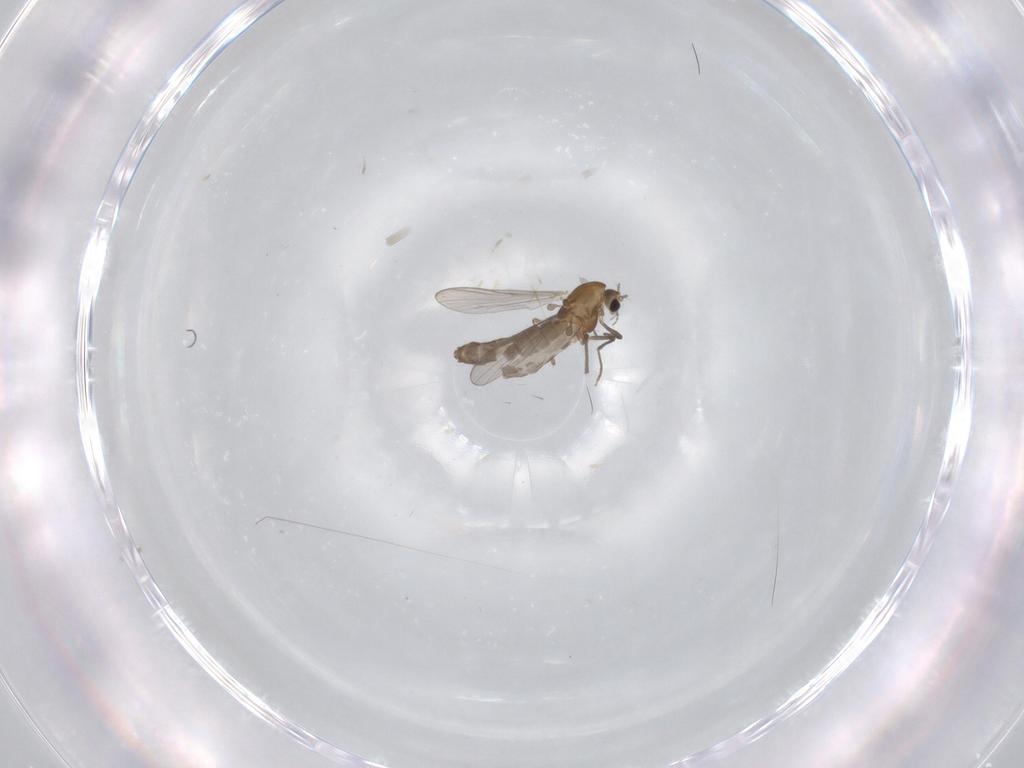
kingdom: Animalia
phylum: Arthropoda
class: Insecta
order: Diptera
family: Chironomidae
